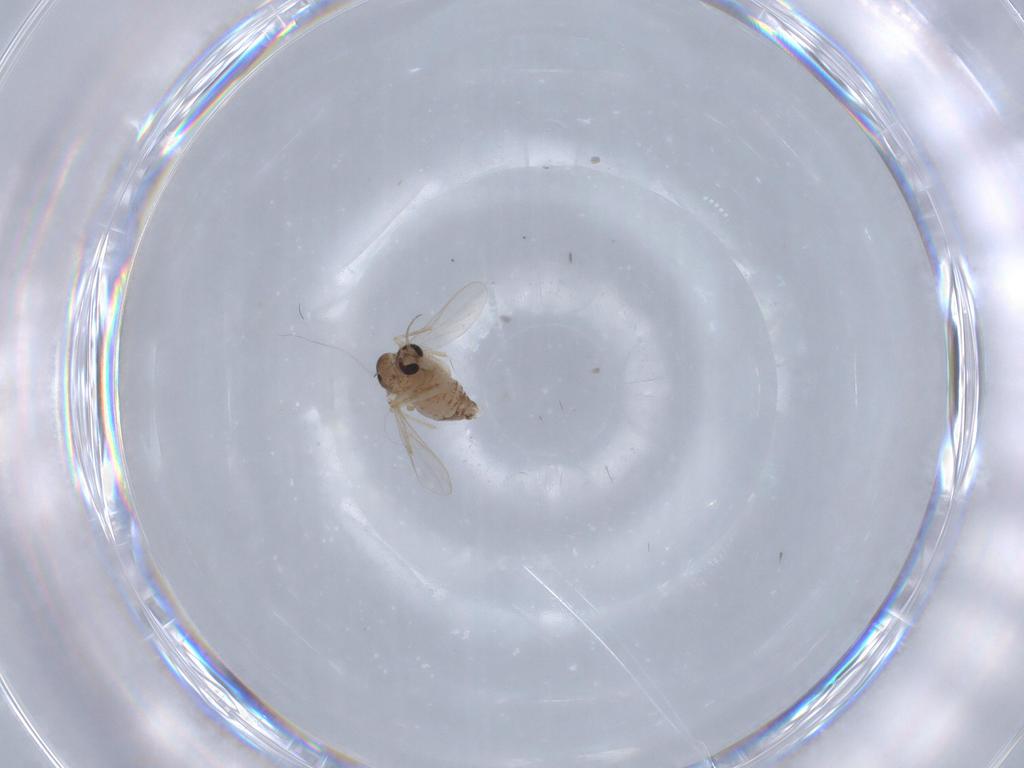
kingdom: Animalia
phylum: Arthropoda
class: Insecta
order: Diptera
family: Chironomidae
